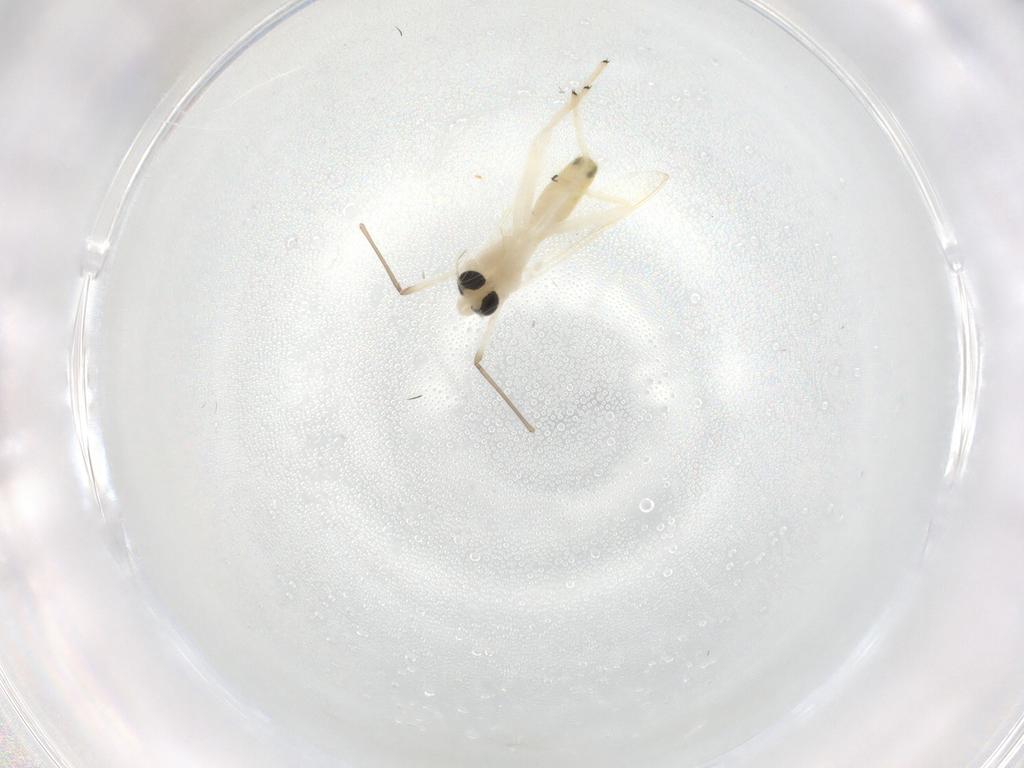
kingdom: Animalia
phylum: Arthropoda
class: Insecta
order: Diptera
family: Chironomidae
